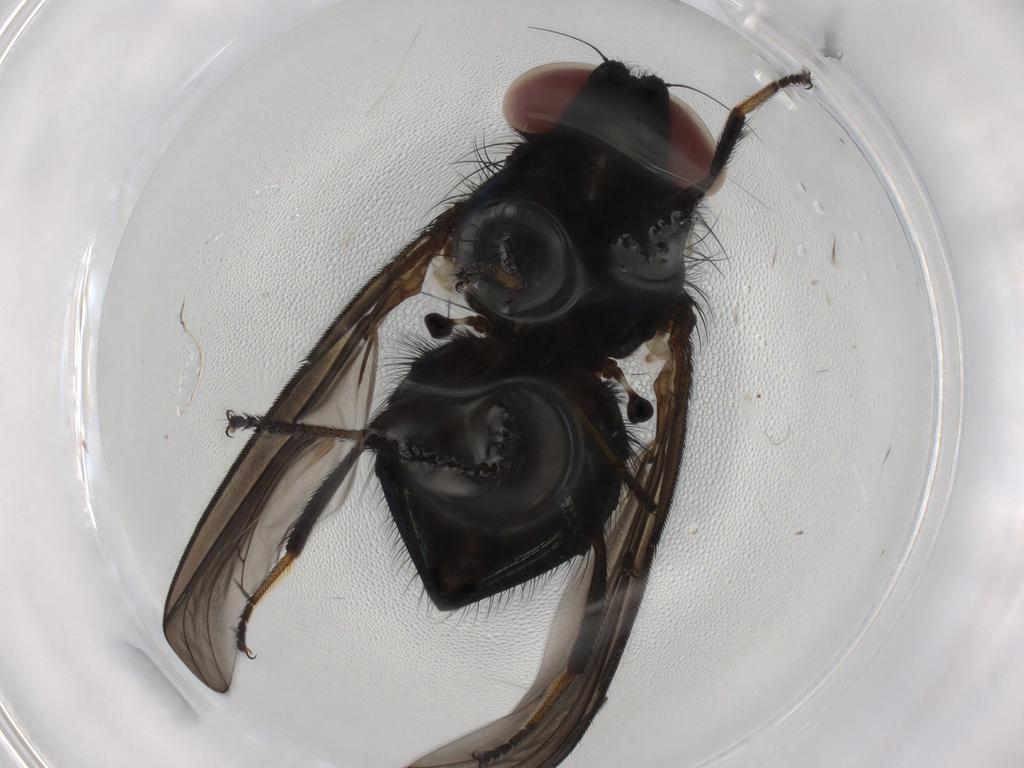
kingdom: Animalia
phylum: Arthropoda
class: Insecta
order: Diptera
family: Lonchaeidae
